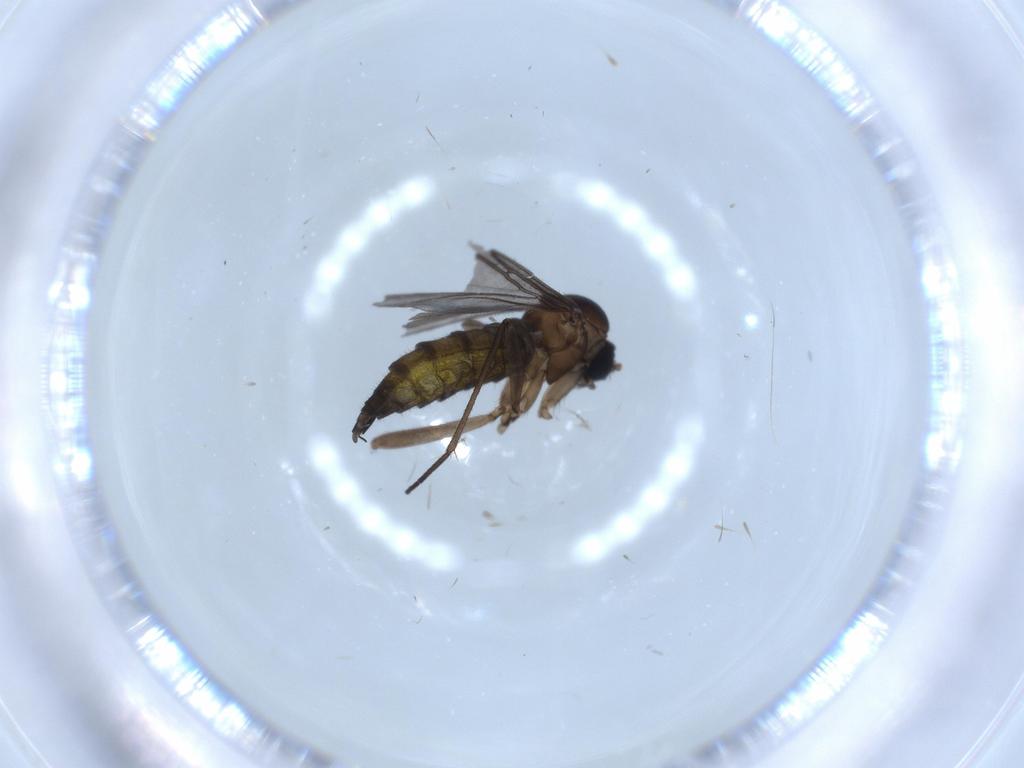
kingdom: Animalia
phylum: Arthropoda
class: Insecta
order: Diptera
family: Sciaridae
